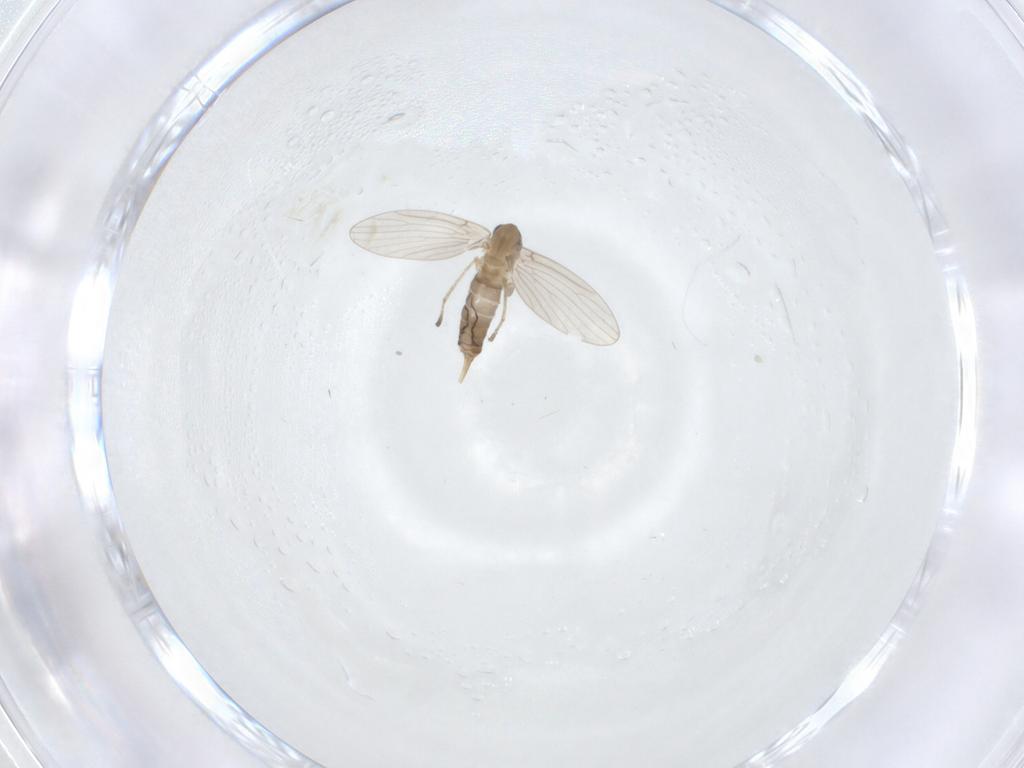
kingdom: Animalia
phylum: Arthropoda
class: Insecta
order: Diptera
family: Psychodidae
